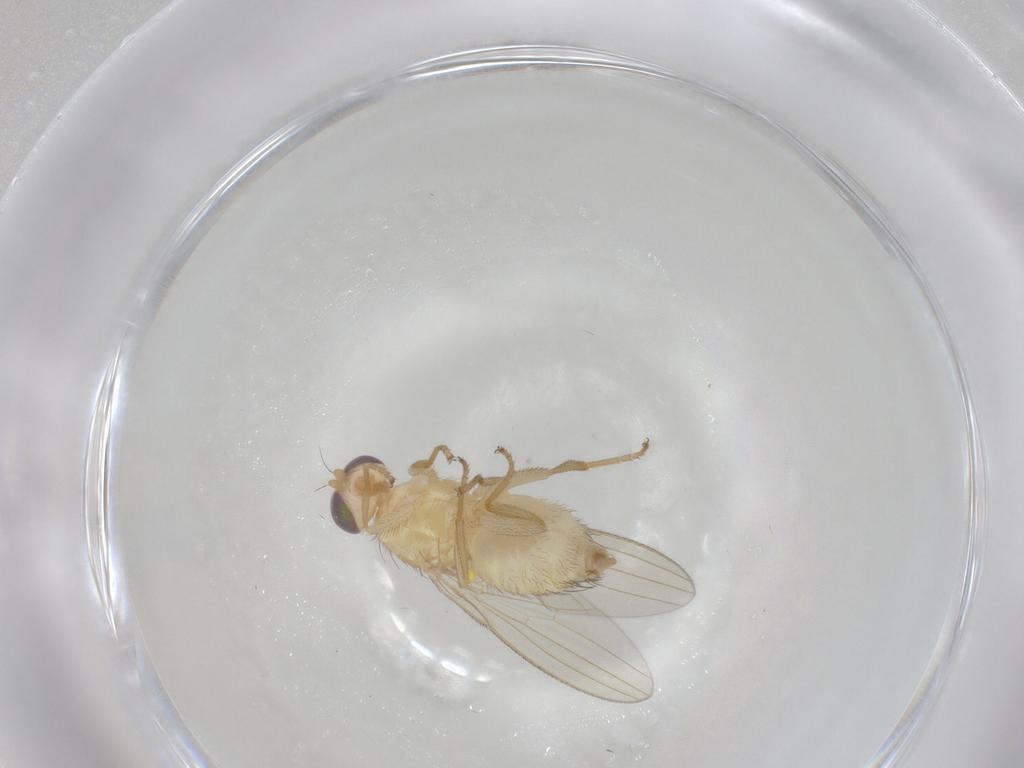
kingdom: Animalia
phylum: Arthropoda
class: Insecta
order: Diptera
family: Chyromyidae
